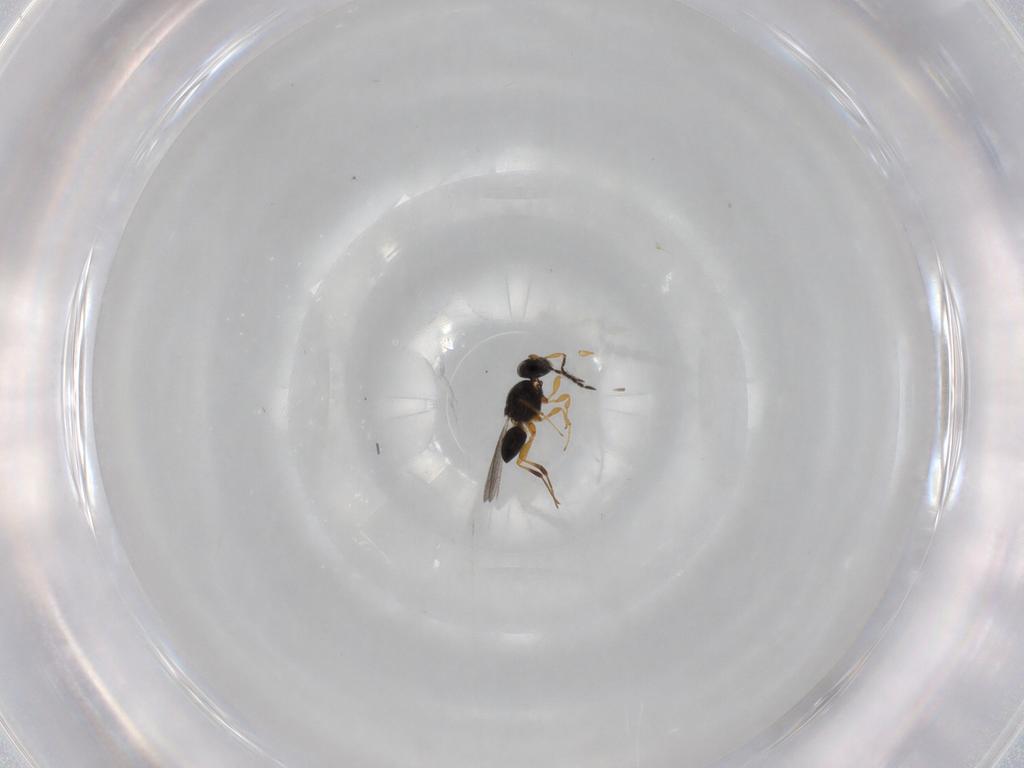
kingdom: Animalia
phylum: Arthropoda
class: Insecta
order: Hymenoptera
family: Platygastridae
